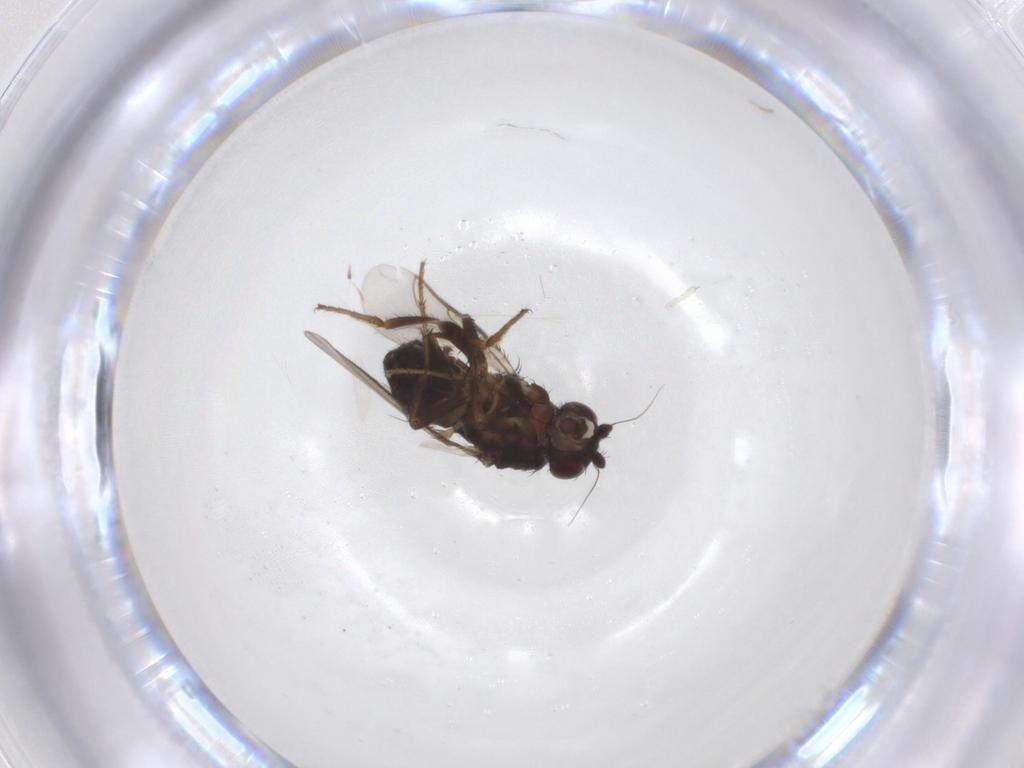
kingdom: Animalia
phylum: Arthropoda
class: Insecta
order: Diptera
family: Sphaeroceridae
